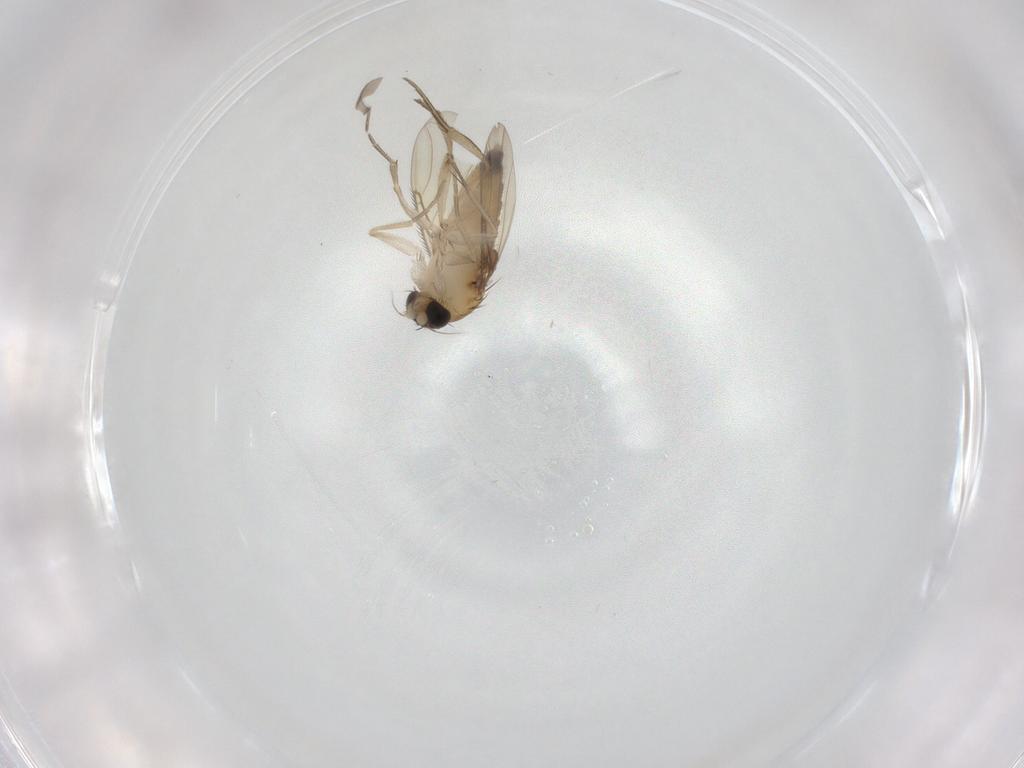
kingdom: Animalia
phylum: Arthropoda
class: Insecta
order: Diptera
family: Phoridae
